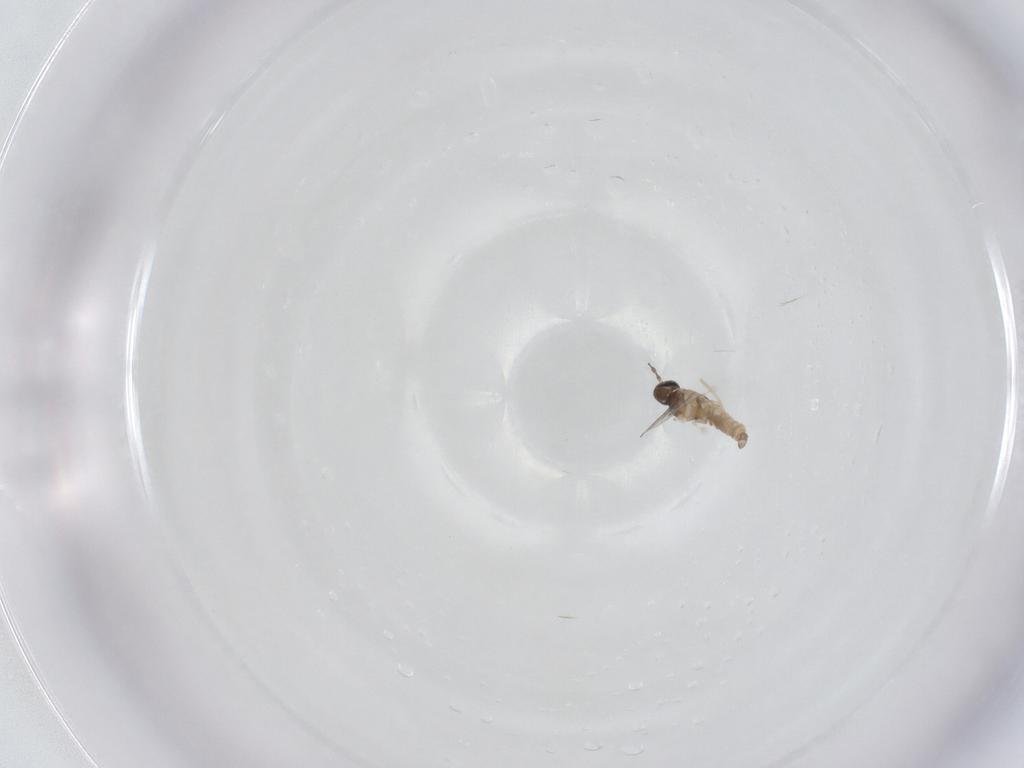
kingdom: Animalia
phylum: Arthropoda
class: Insecta
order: Diptera
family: Cecidomyiidae
